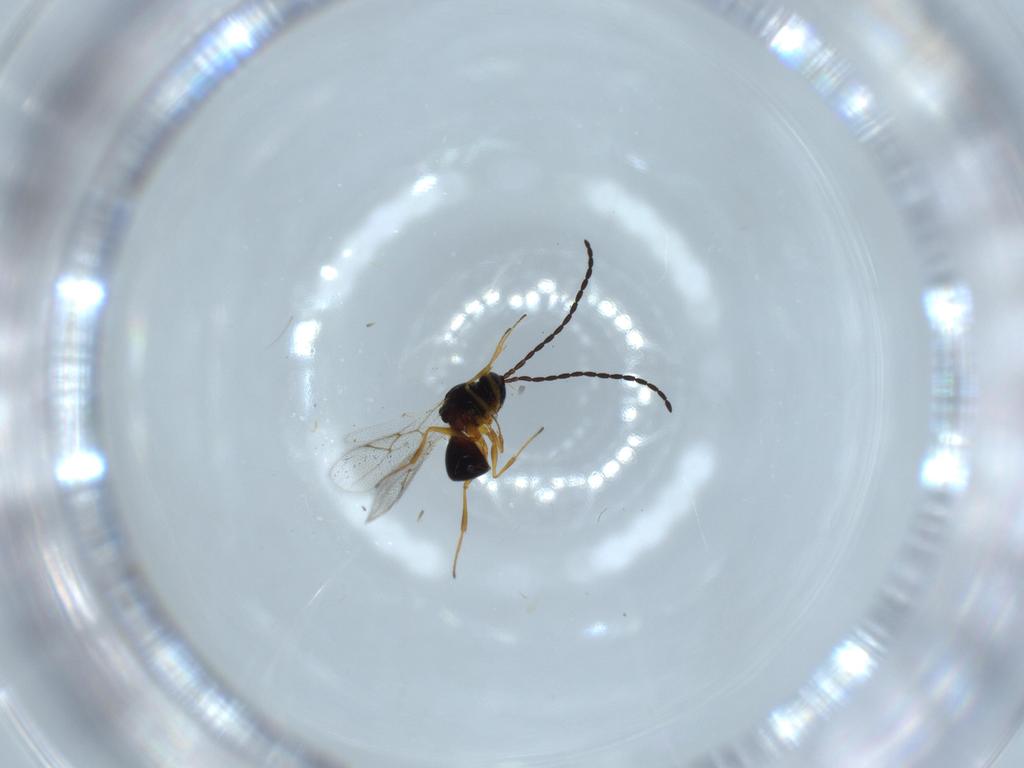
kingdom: Animalia
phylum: Arthropoda
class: Insecta
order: Hymenoptera
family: Figitidae
